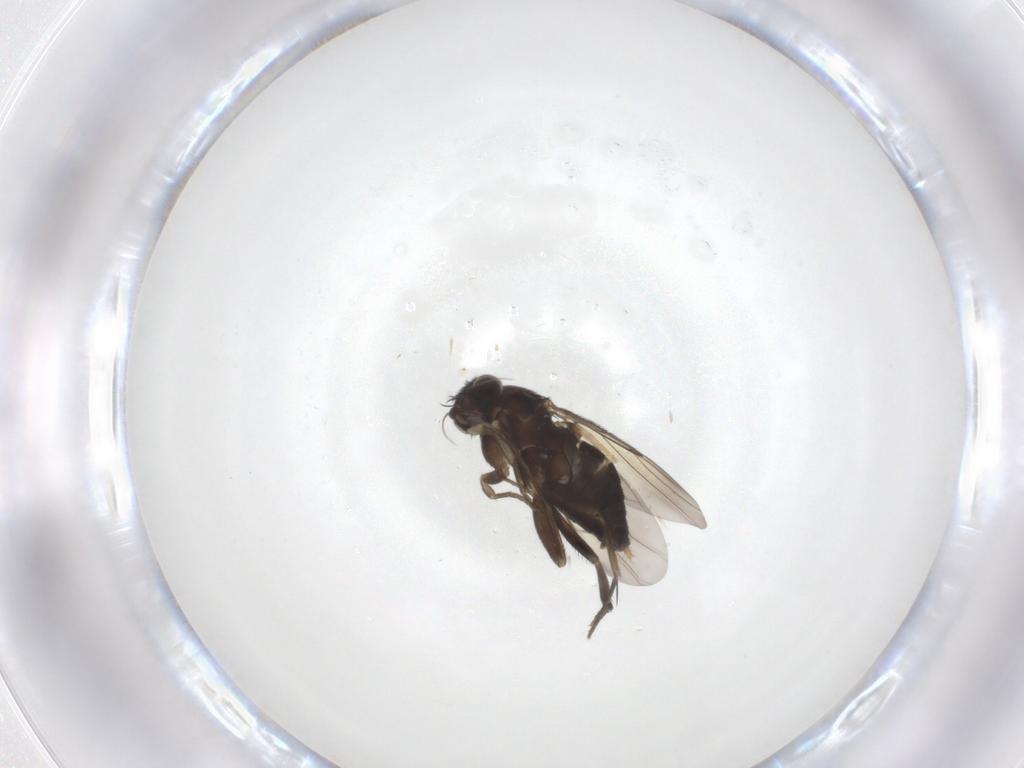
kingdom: Animalia
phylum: Arthropoda
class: Insecta
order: Diptera
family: Phoridae
